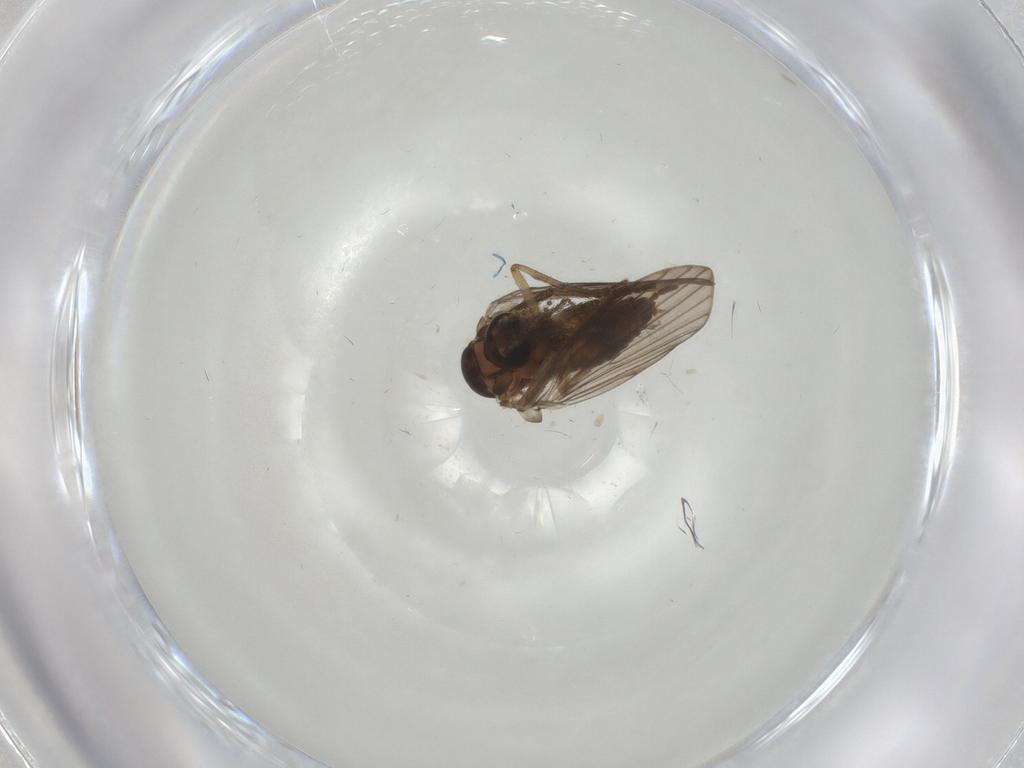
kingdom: Animalia
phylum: Arthropoda
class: Insecta
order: Diptera
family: Psychodidae
